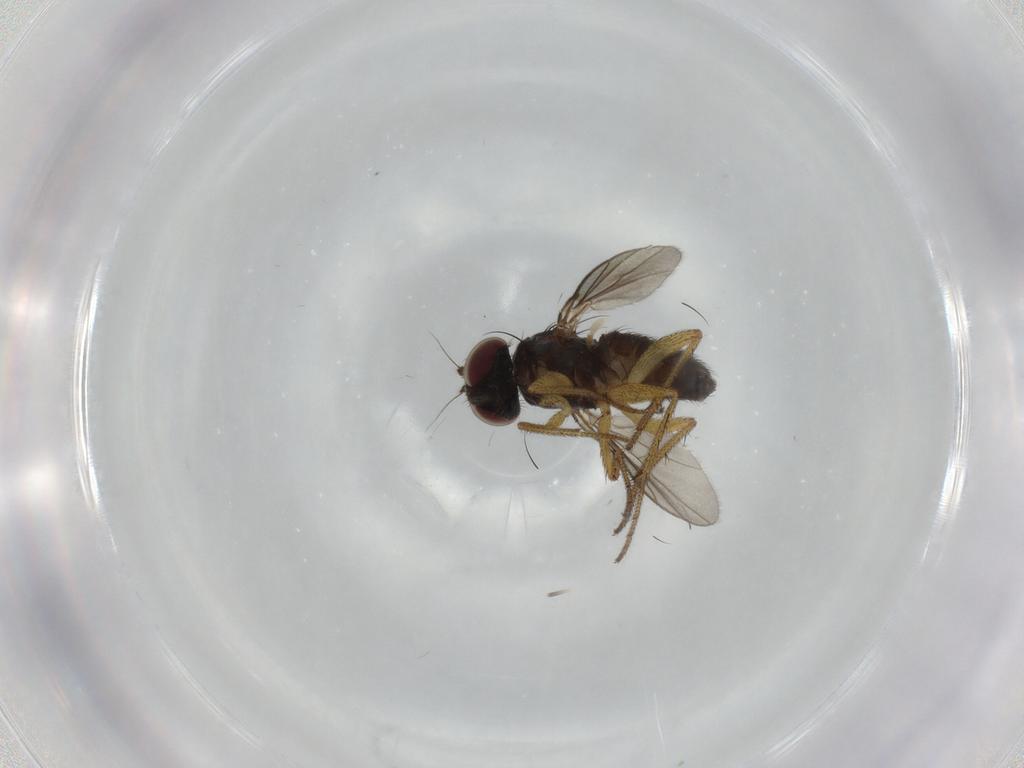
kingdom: Animalia
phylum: Arthropoda
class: Insecta
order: Diptera
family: Dolichopodidae
